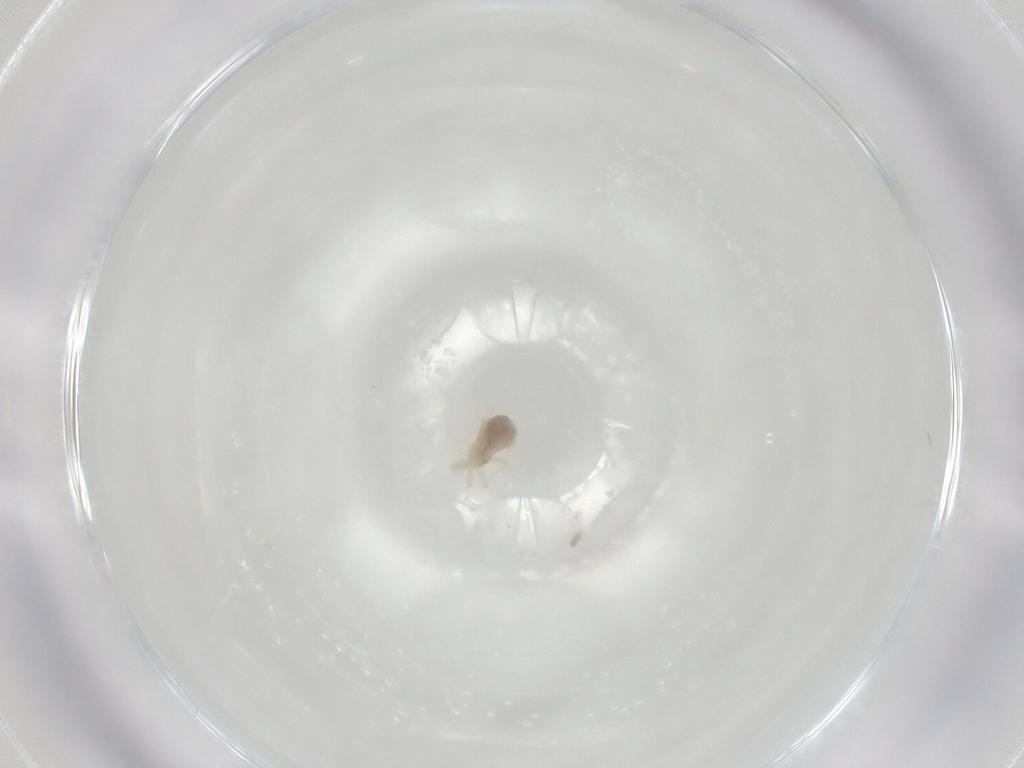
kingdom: Animalia
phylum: Arthropoda
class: Arachnida
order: Trombidiformes
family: Anystidae
